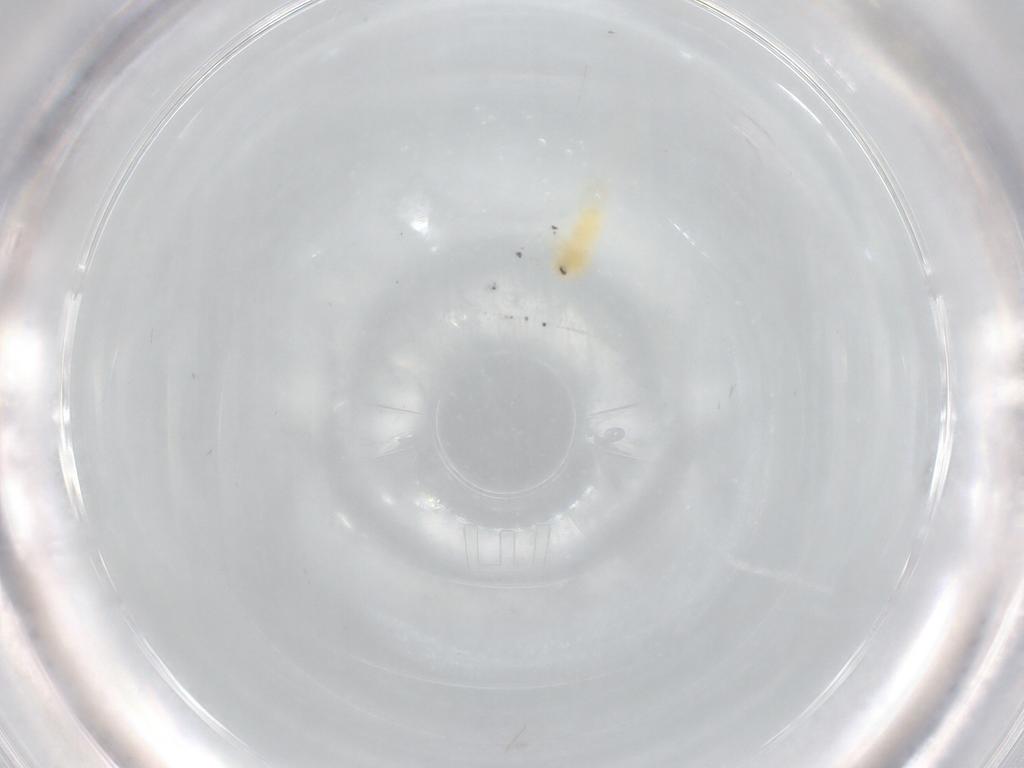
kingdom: Animalia
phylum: Arthropoda
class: Insecta
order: Hemiptera
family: Aleyrodidae
